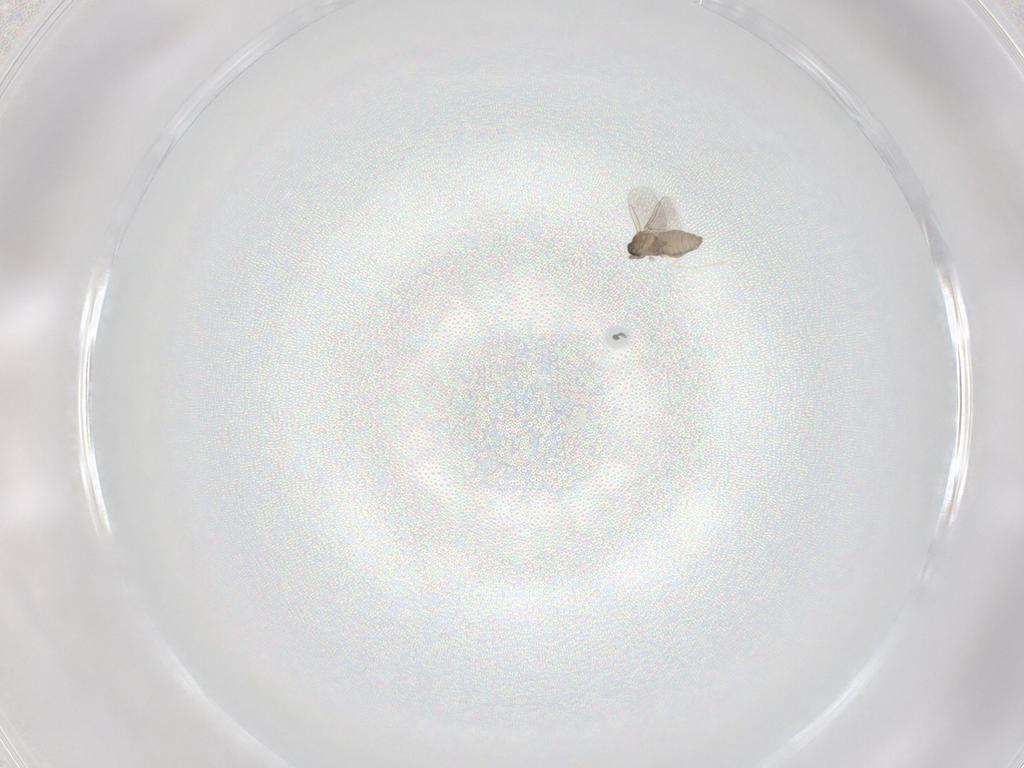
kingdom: Animalia
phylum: Arthropoda
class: Insecta
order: Diptera
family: Cecidomyiidae
